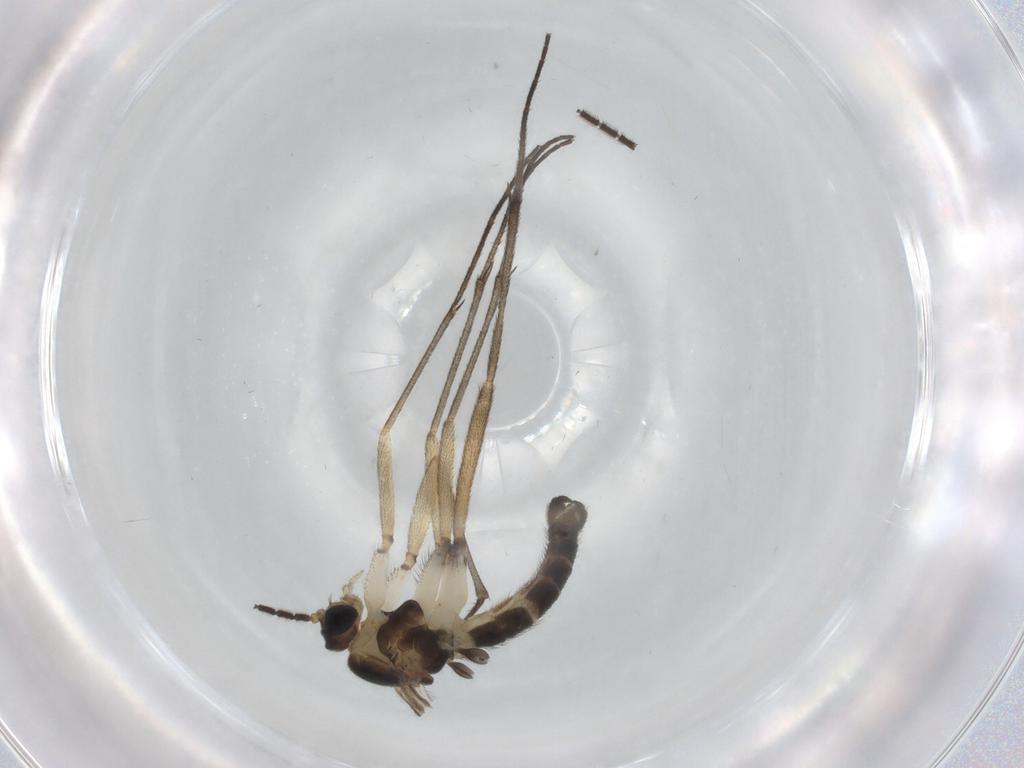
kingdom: Animalia
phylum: Arthropoda
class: Insecta
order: Diptera
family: Sciaridae
